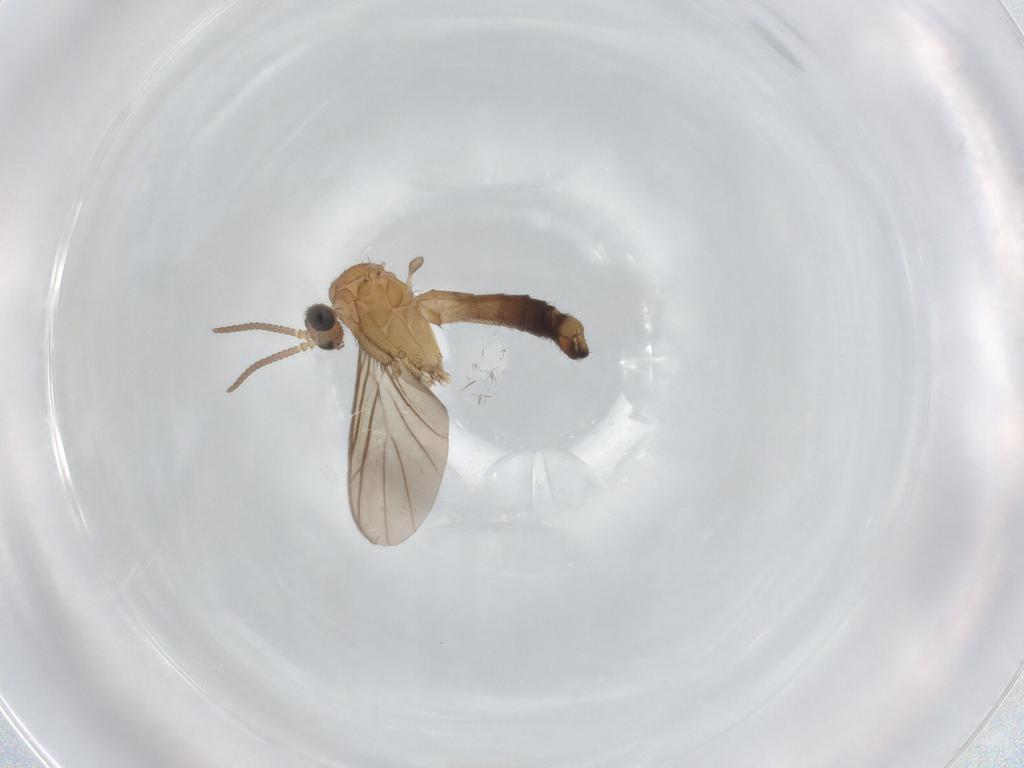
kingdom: Animalia
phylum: Arthropoda
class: Insecta
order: Diptera
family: Keroplatidae
